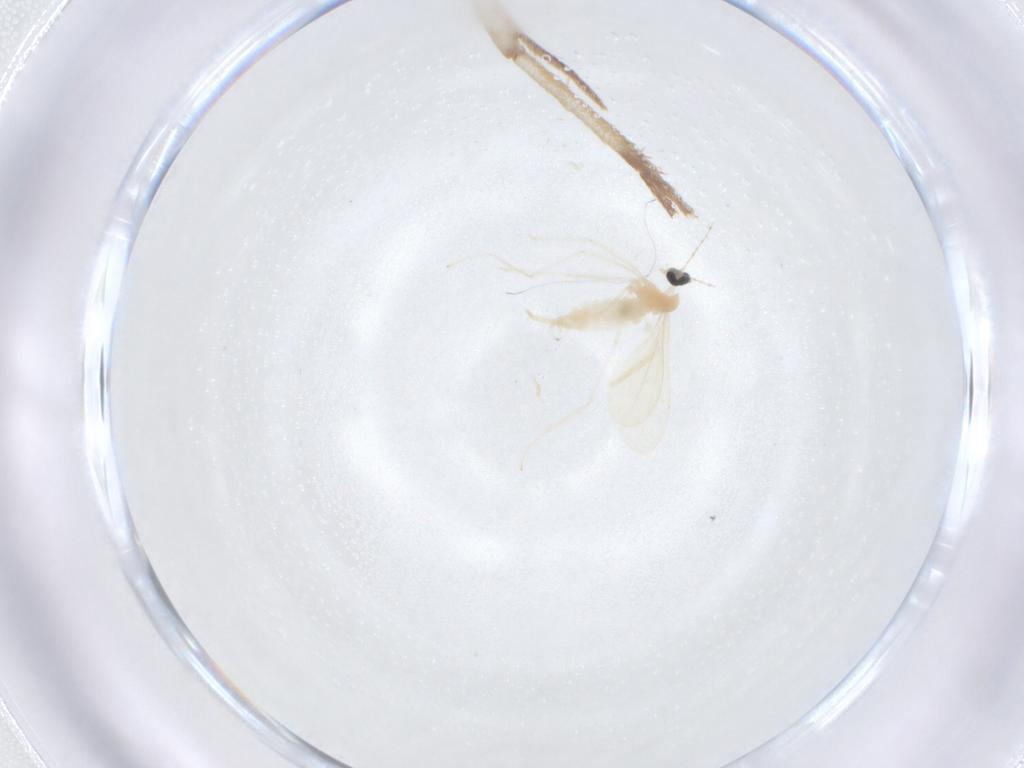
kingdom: Animalia
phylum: Arthropoda
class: Insecta
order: Diptera
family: Cecidomyiidae
